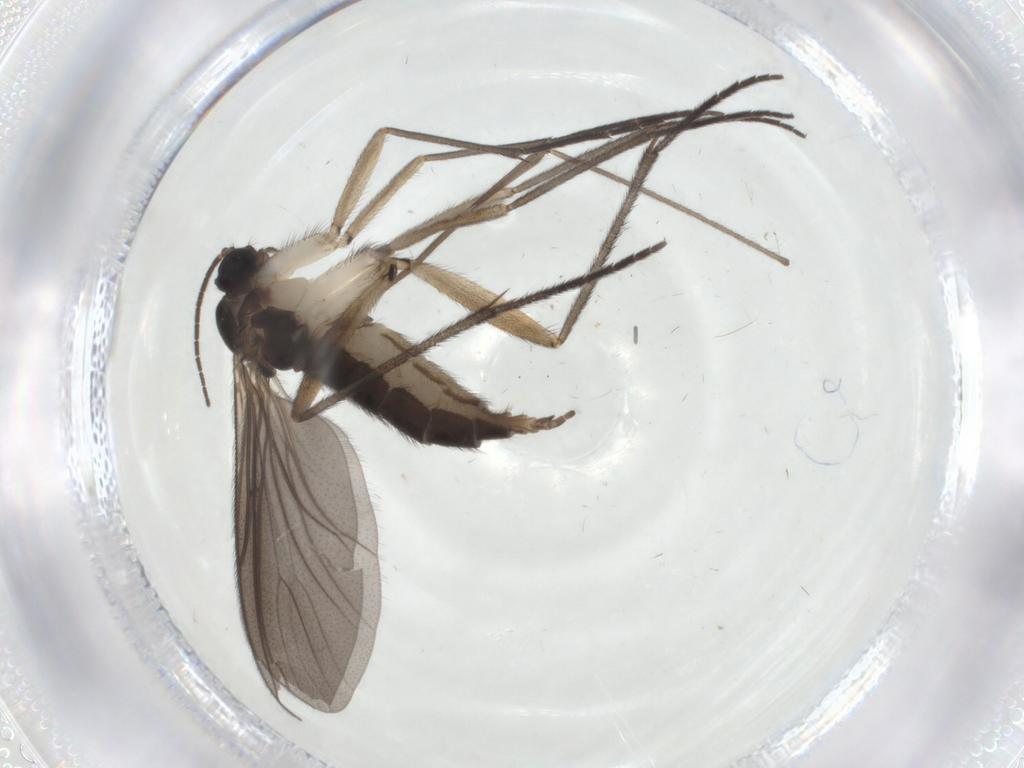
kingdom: Animalia
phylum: Arthropoda
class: Insecta
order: Diptera
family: Sciaridae
